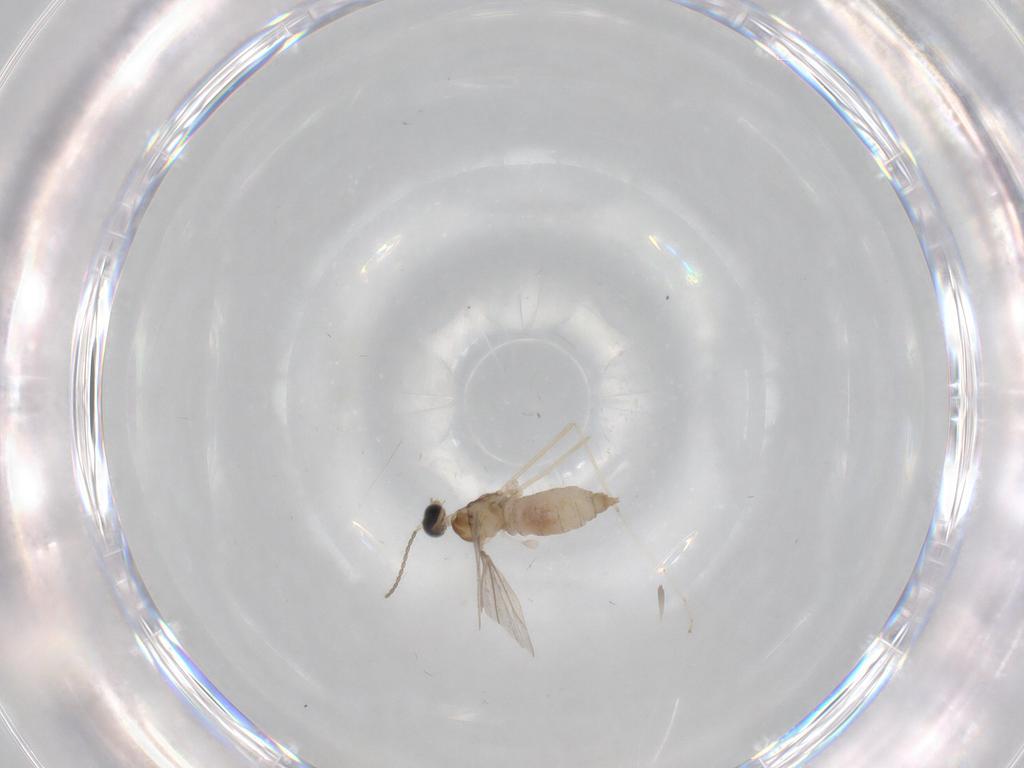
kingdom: Animalia
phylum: Arthropoda
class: Insecta
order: Diptera
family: Cecidomyiidae
